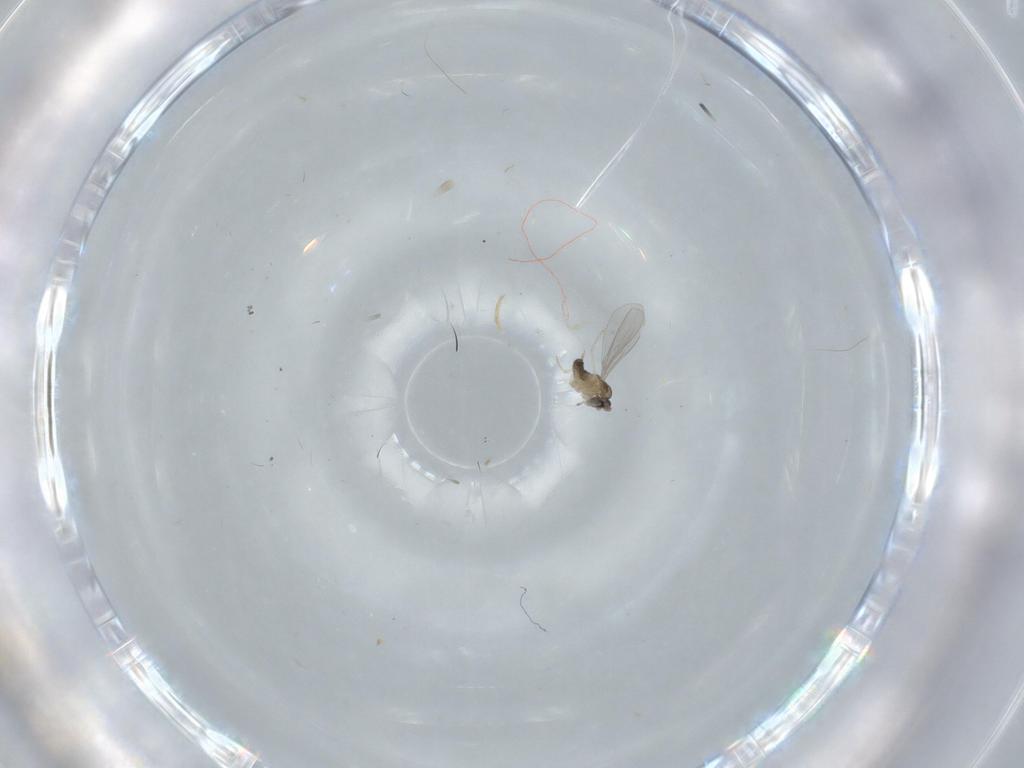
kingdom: Animalia
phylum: Arthropoda
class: Insecta
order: Diptera
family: Cecidomyiidae
